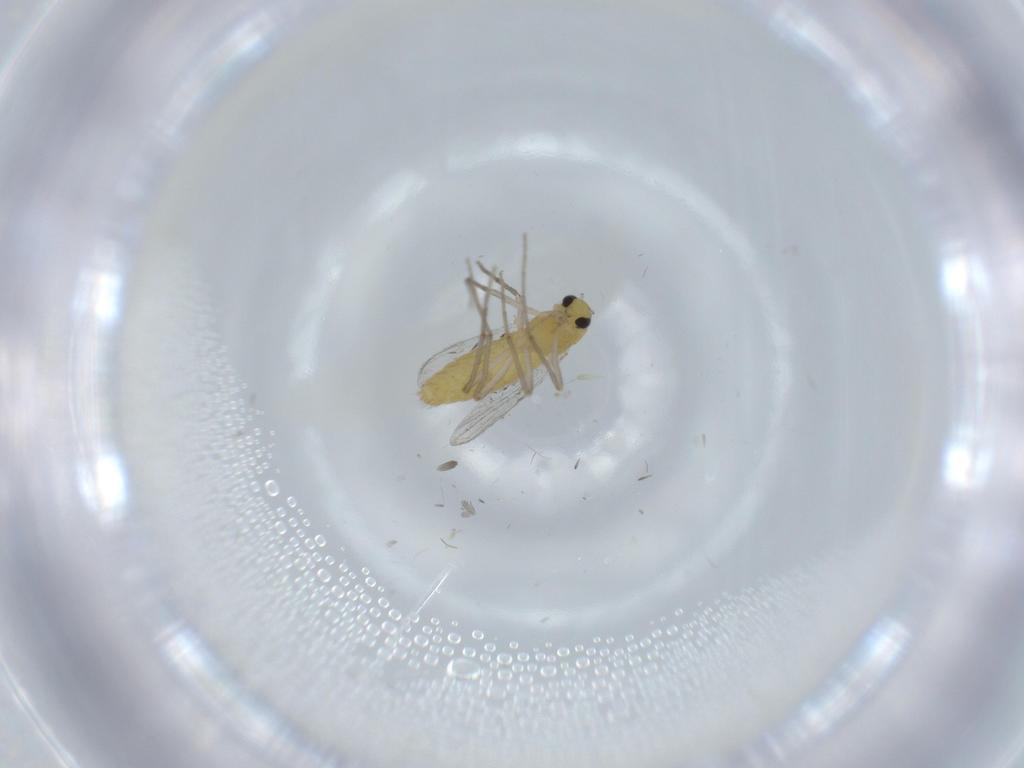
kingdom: Animalia
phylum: Arthropoda
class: Insecta
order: Diptera
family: Chironomidae
